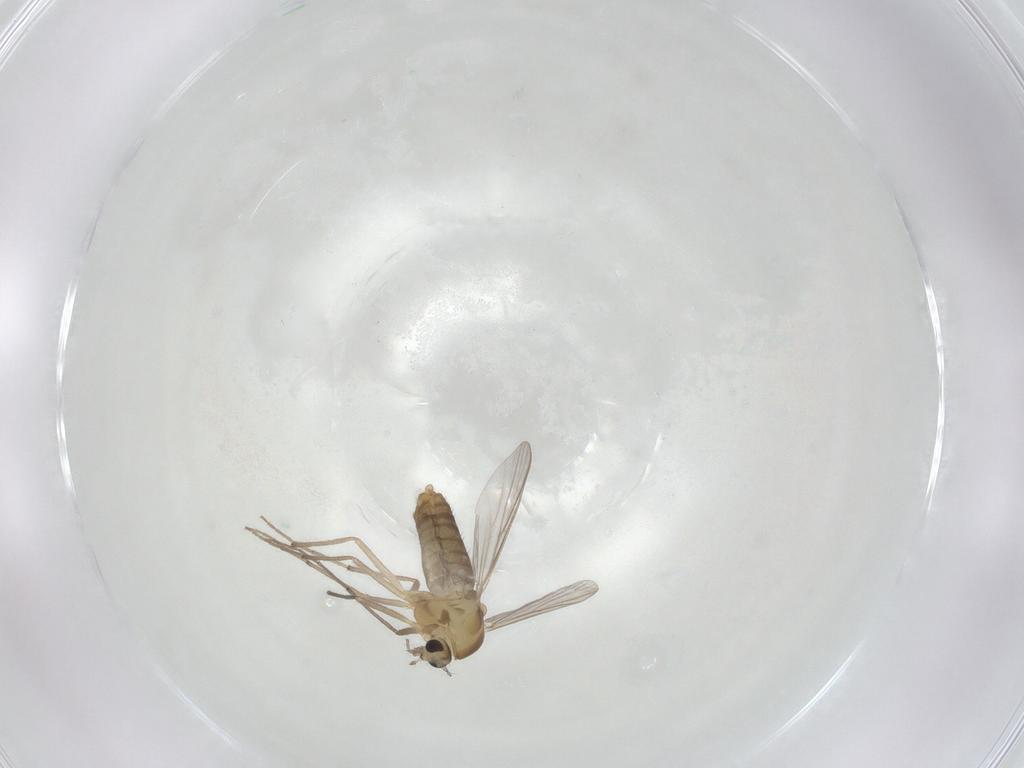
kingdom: Animalia
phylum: Arthropoda
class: Insecta
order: Diptera
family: Chironomidae
